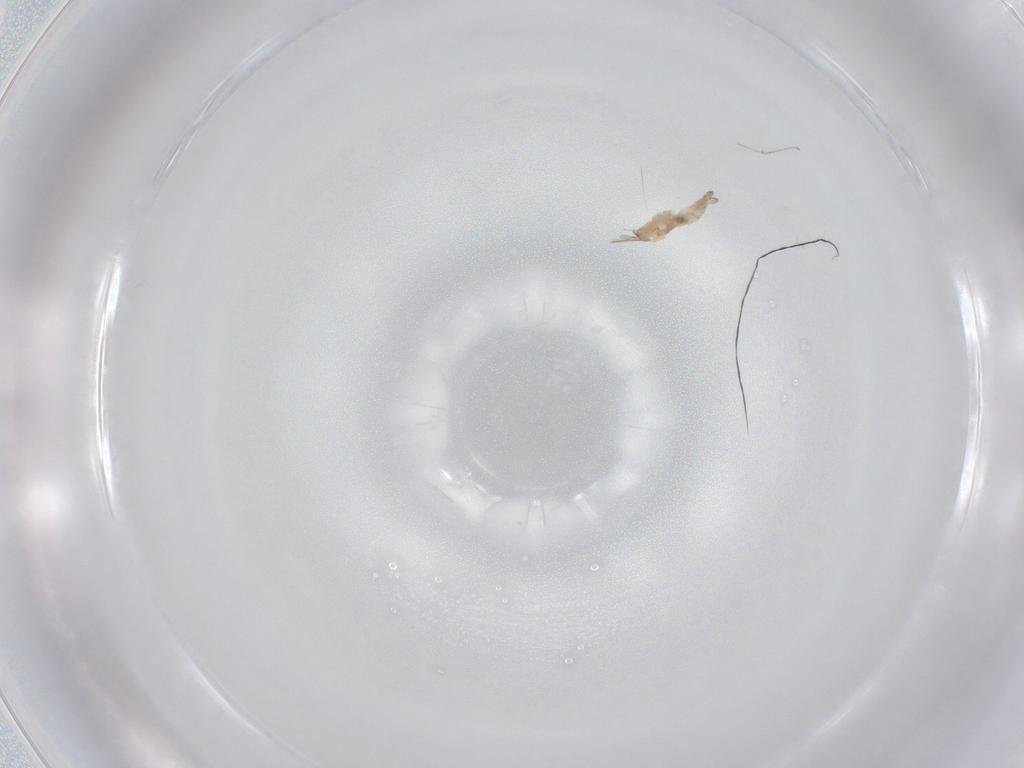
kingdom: Animalia
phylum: Arthropoda
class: Insecta
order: Diptera
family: Cecidomyiidae
